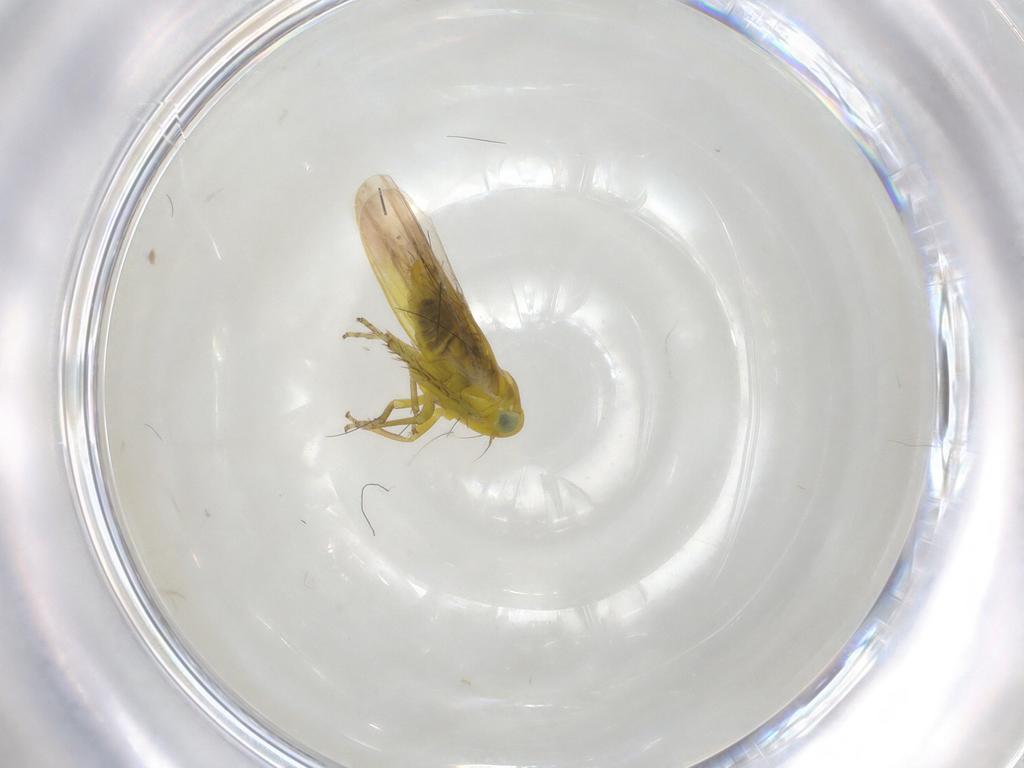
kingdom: Animalia
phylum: Arthropoda
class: Insecta
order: Hemiptera
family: Cicadellidae
